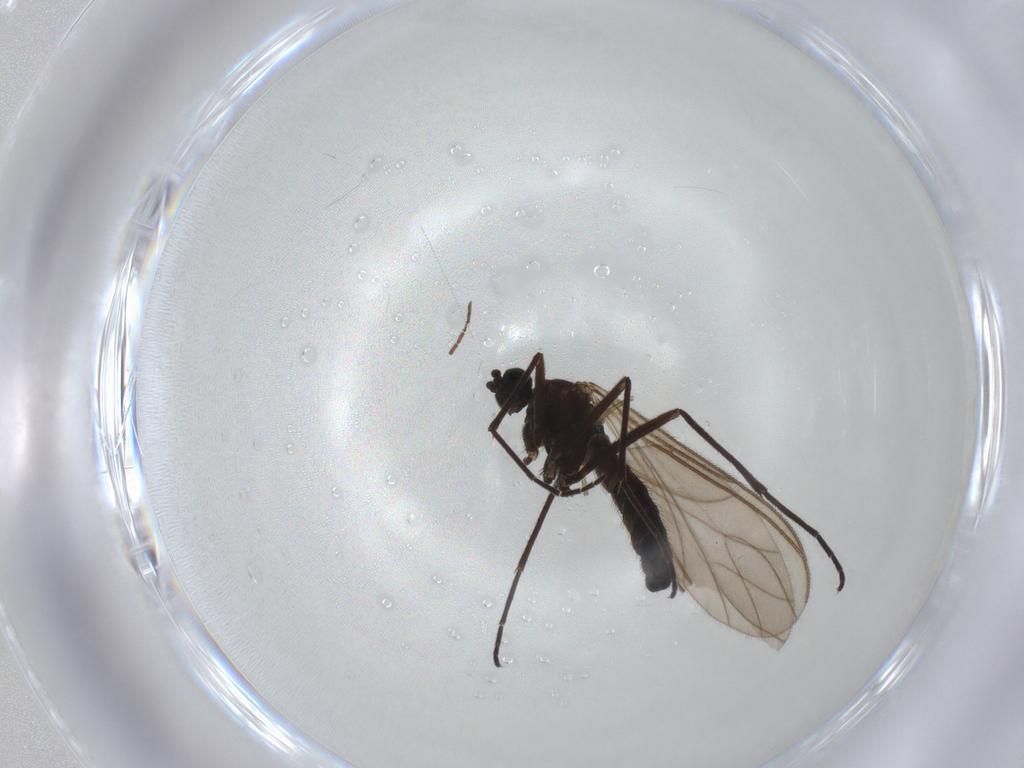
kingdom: Animalia
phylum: Arthropoda
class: Insecta
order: Diptera
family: Sciaridae
